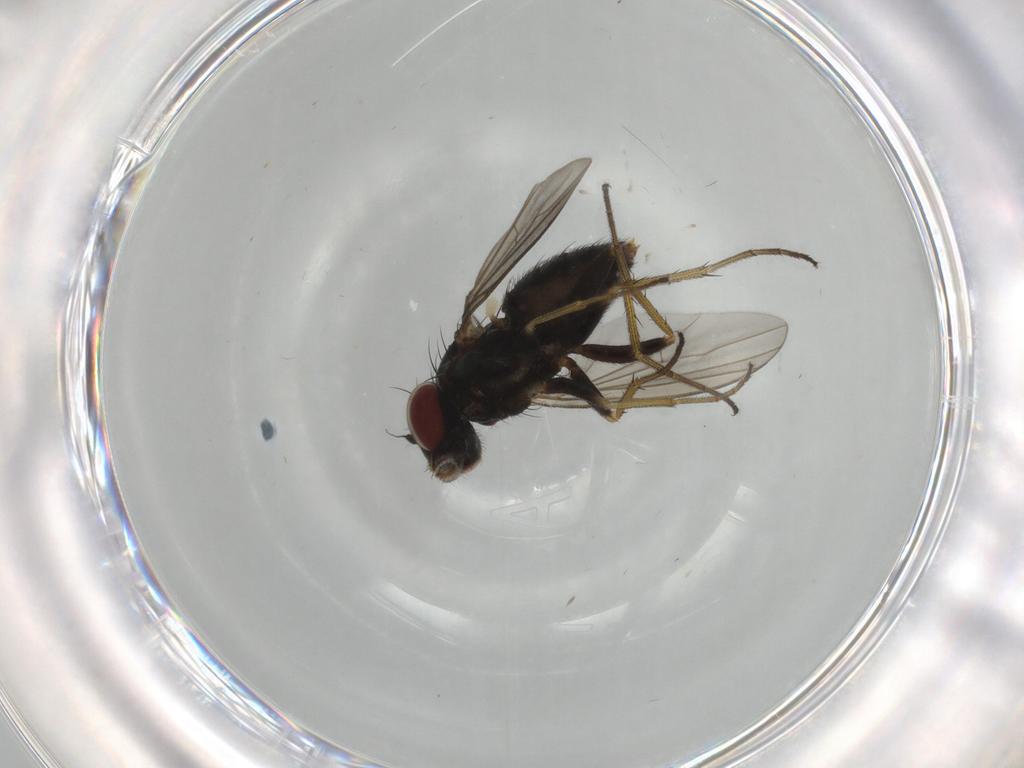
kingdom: Animalia
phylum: Arthropoda
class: Insecta
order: Diptera
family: Dolichopodidae
